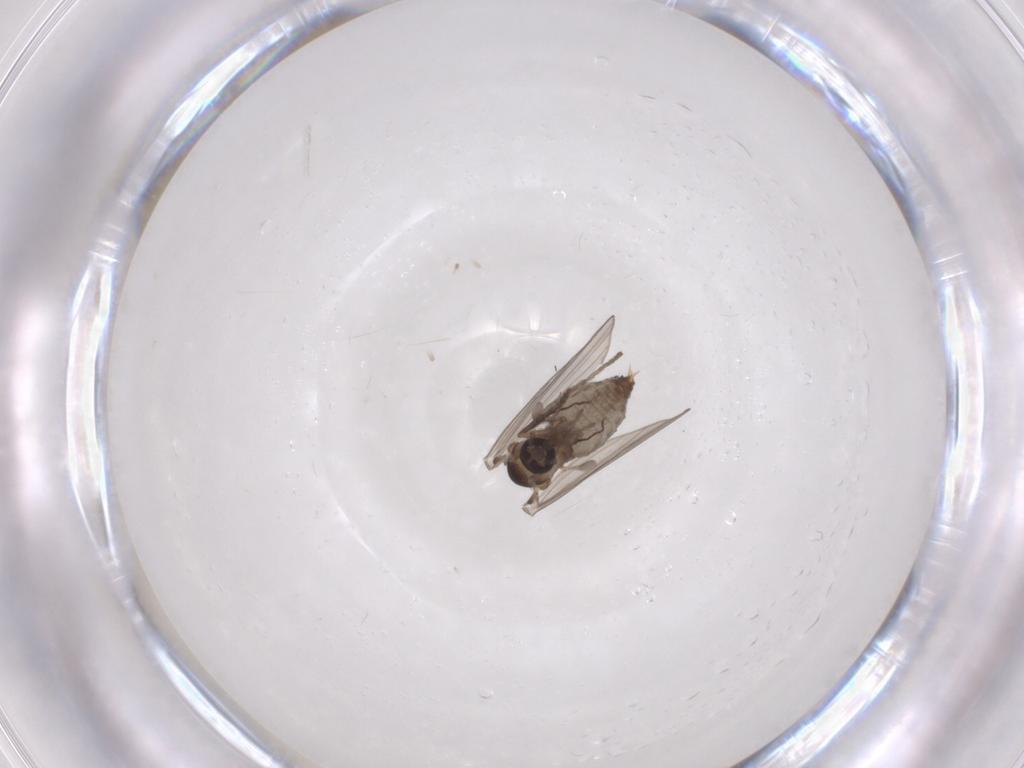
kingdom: Animalia
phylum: Arthropoda
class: Insecta
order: Diptera
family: Psychodidae
